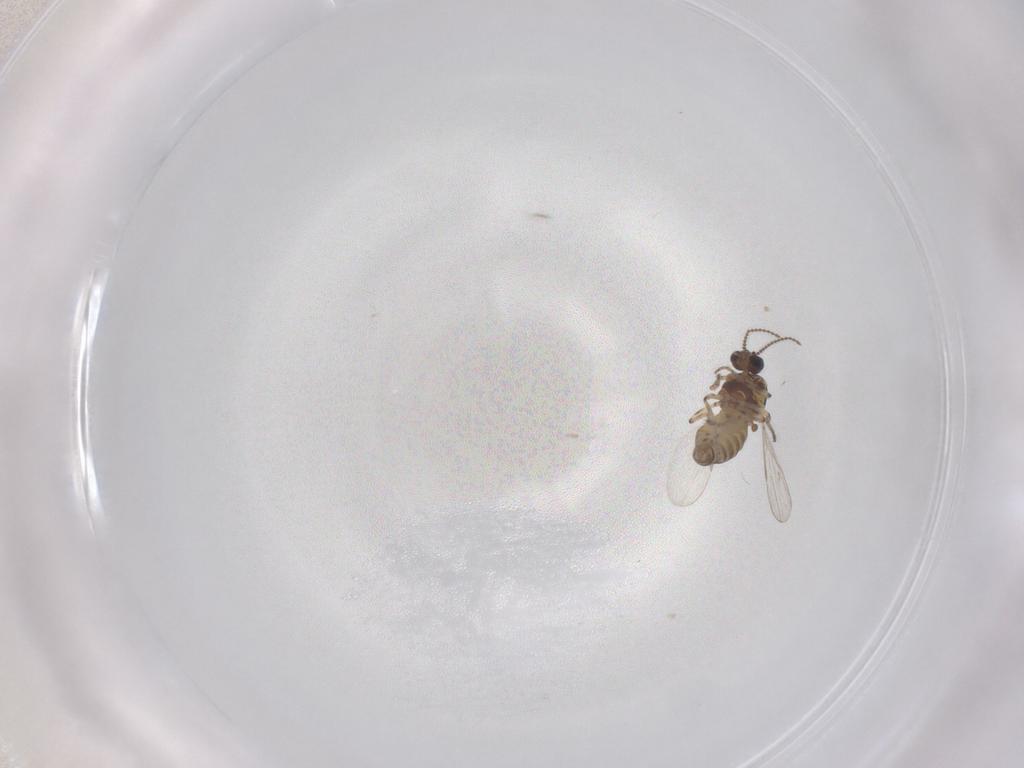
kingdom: Animalia
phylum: Arthropoda
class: Insecta
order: Diptera
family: Ceratopogonidae
